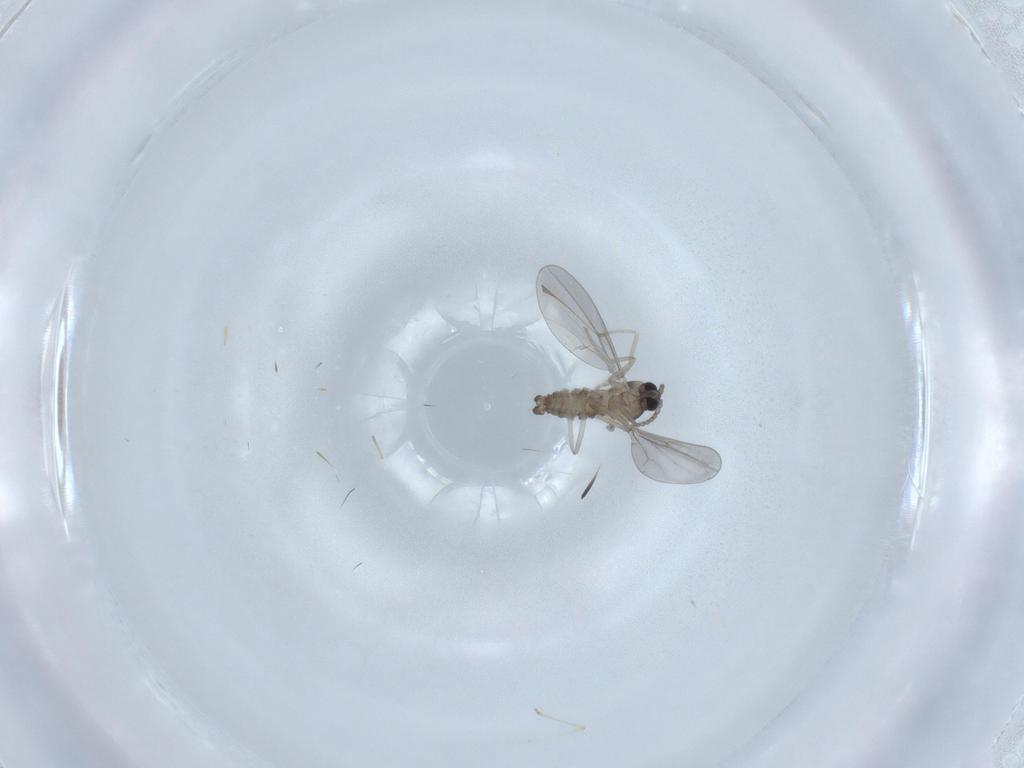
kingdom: Animalia
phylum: Arthropoda
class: Insecta
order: Diptera
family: Cecidomyiidae
